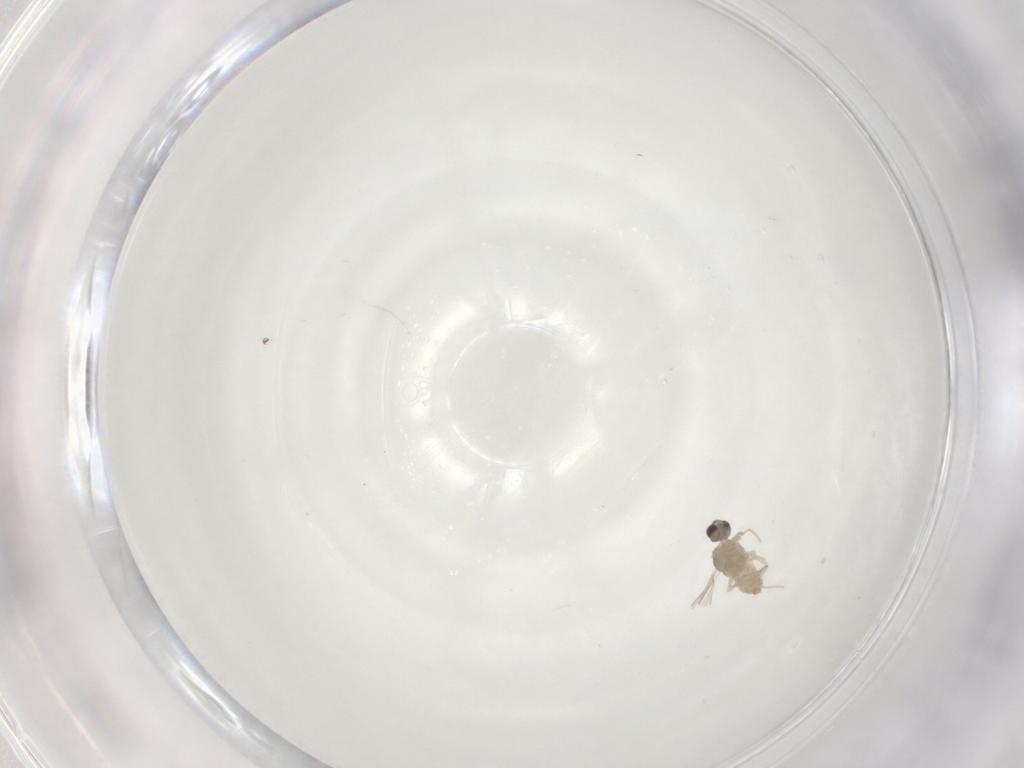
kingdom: Animalia
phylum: Arthropoda
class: Insecta
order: Diptera
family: Cecidomyiidae
